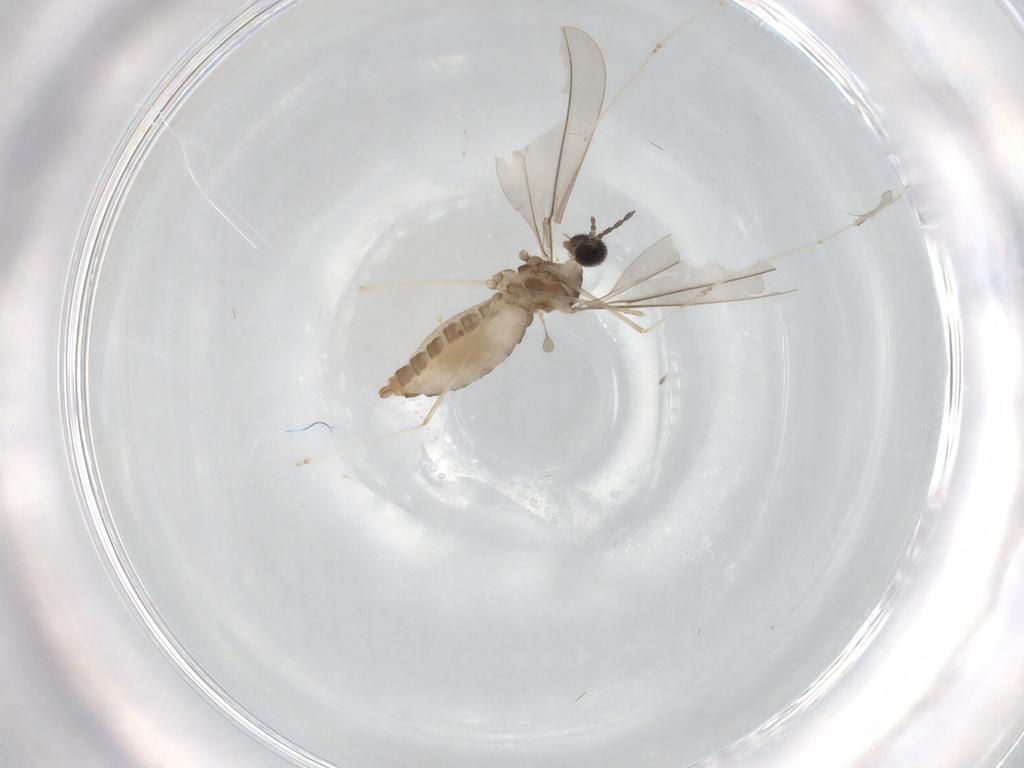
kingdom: Animalia
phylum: Arthropoda
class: Insecta
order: Diptera
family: Cecidomyiidae
